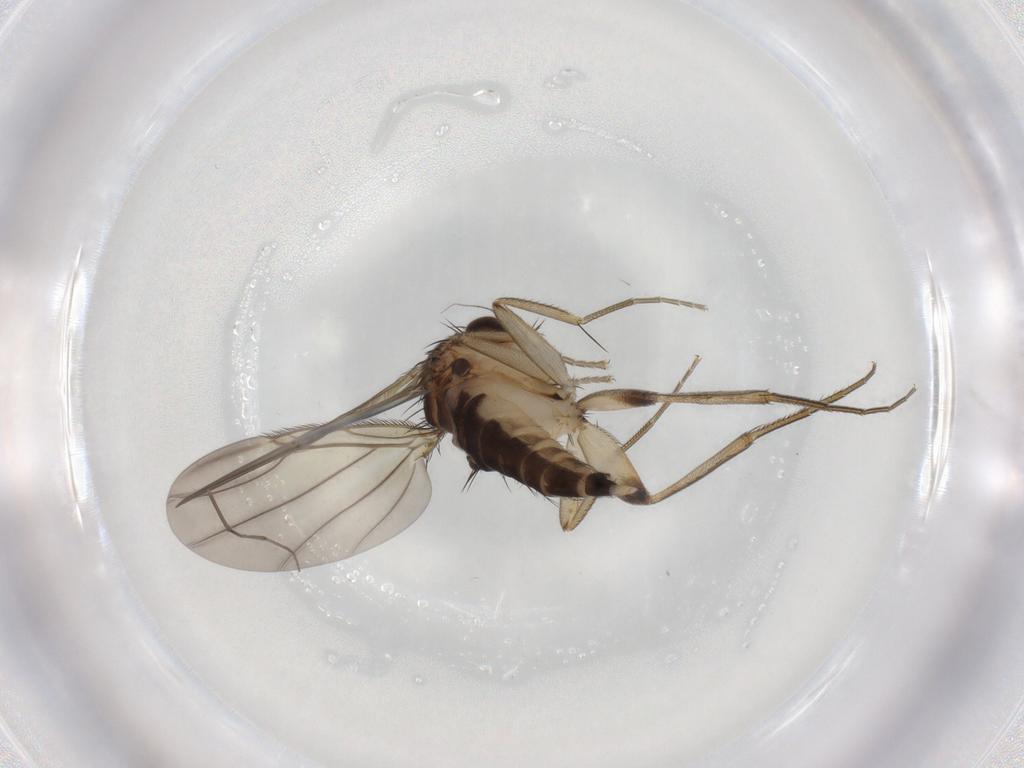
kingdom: Animalia
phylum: Arthropoda
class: Insecta
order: Diptera
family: Phoridae
